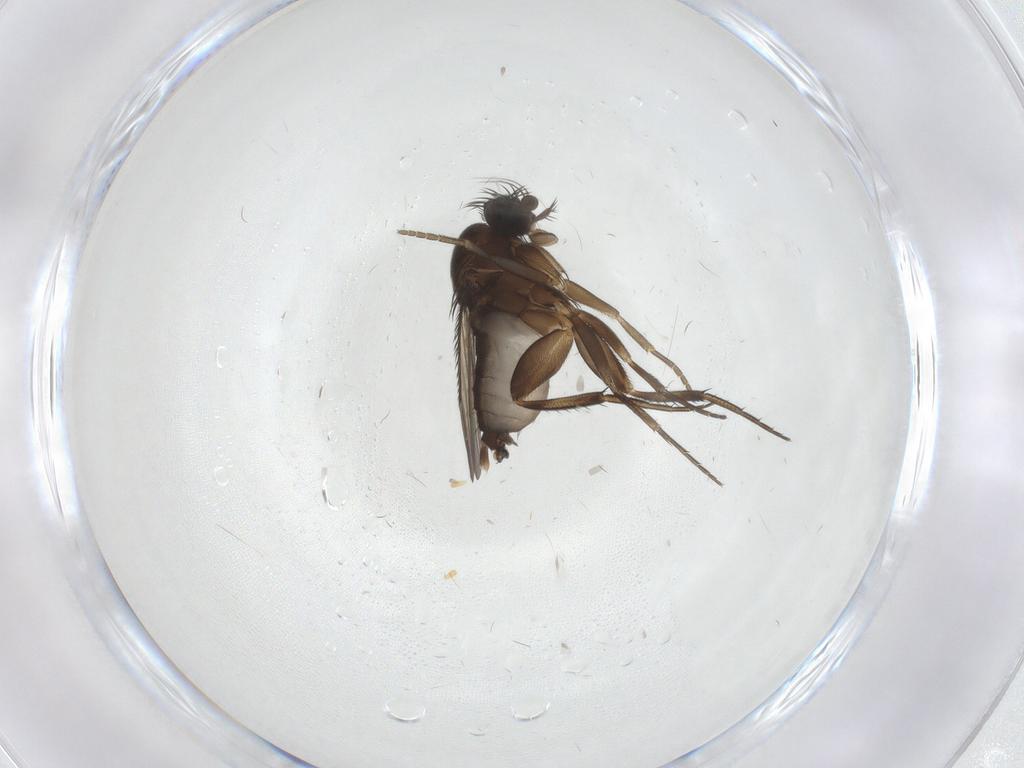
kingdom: Animalia
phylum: Arthropoda
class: Insecta
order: Diptera
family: Phoridae
